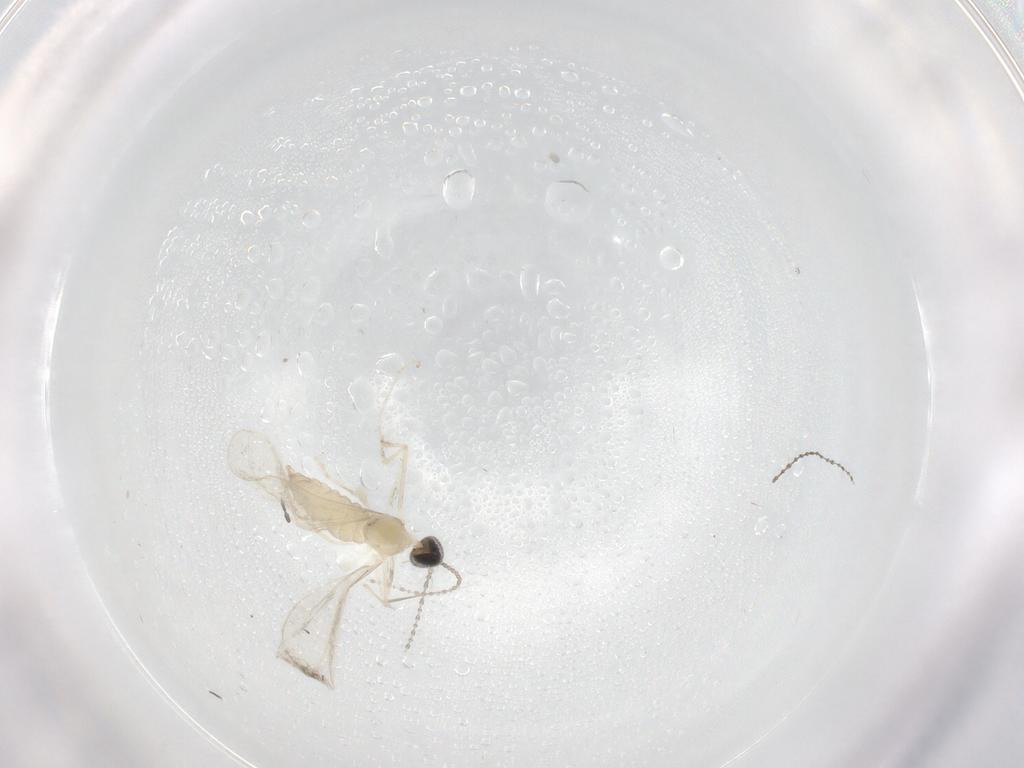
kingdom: Animalia
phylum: Arthropoda
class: Insecta
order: Diptera
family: Cecidomyiidae
